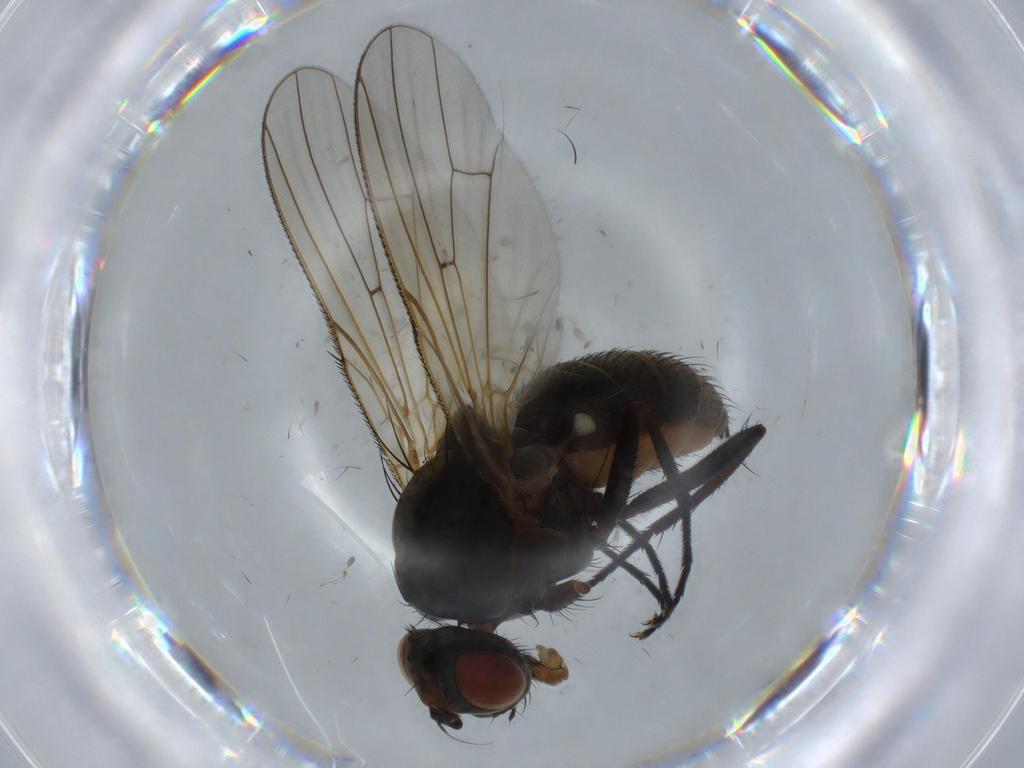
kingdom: Animalia
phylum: Arthropoda
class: Insecta
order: Diptera
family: Anthomyiidae
